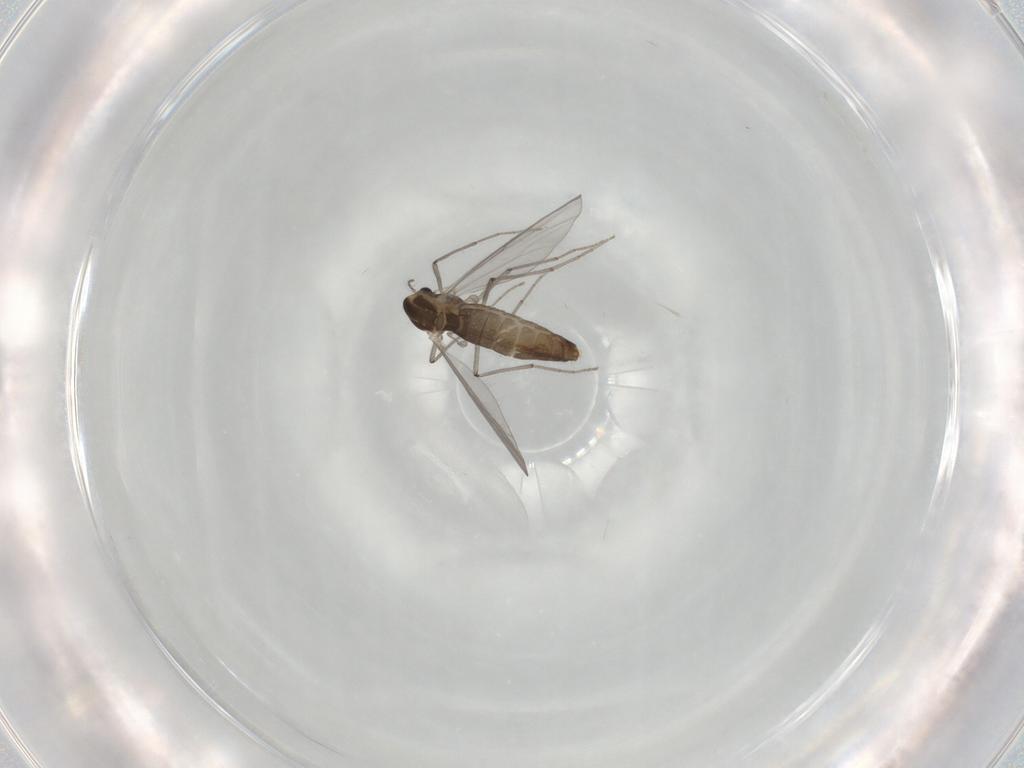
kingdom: Animalia
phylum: Arthropoda
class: Insecta
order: Diptera
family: Chironomidae
